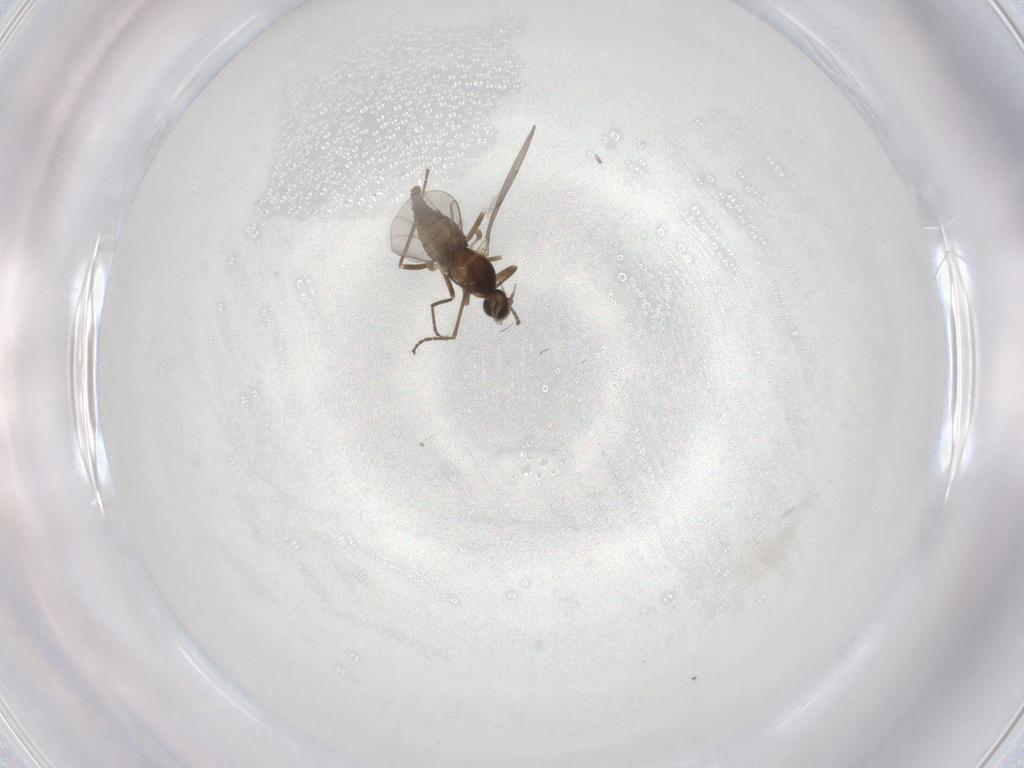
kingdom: Animalia
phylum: Arthropoda
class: Insecta
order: Diptera
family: Cecidomyiidae
